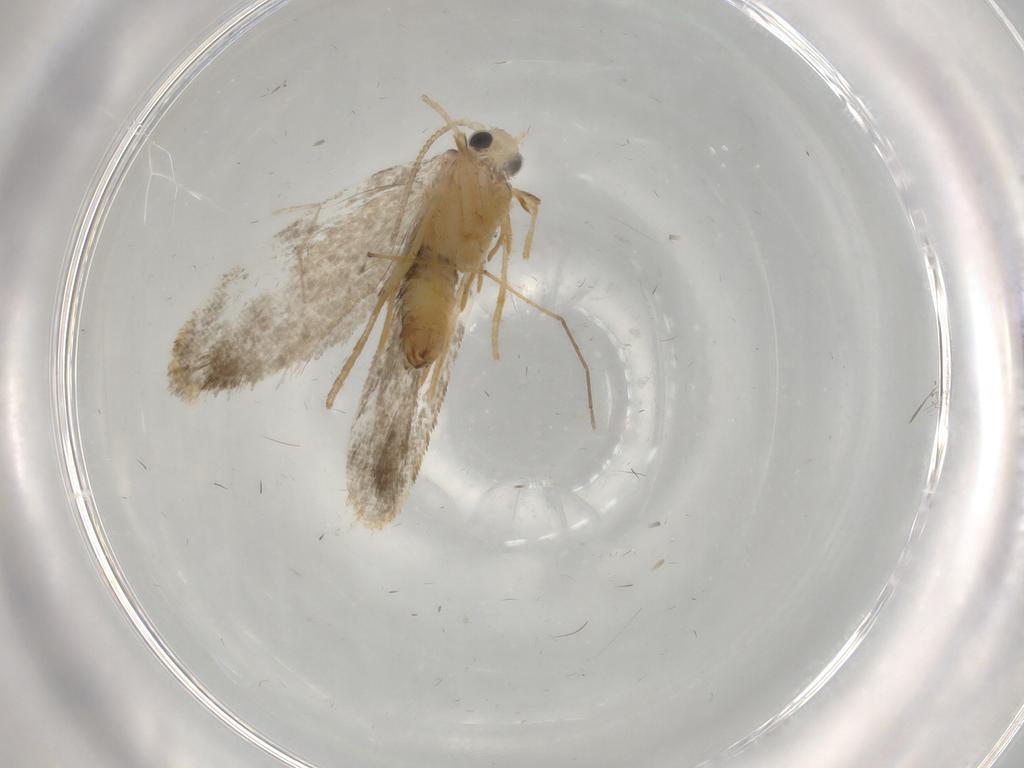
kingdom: Animalia
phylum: Arthropoda
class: Insecta
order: Lepidoptera
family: Psychidae
